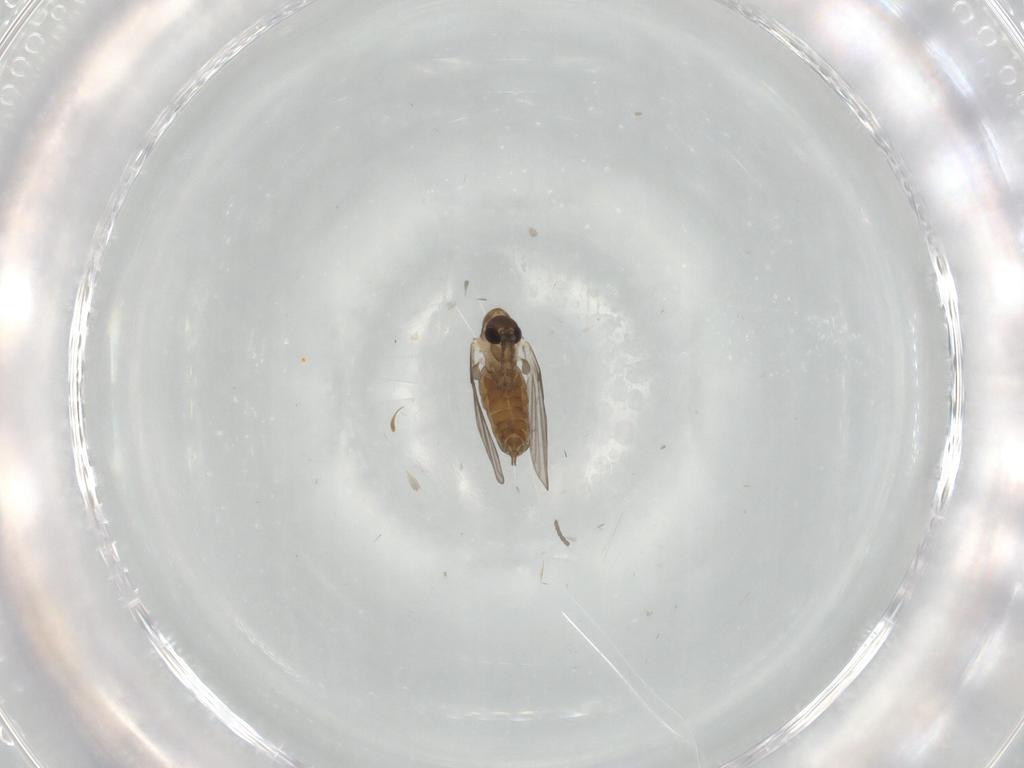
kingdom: Animalia
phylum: Arthropoda
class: Insecta
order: Diptera
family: Psychodidae
